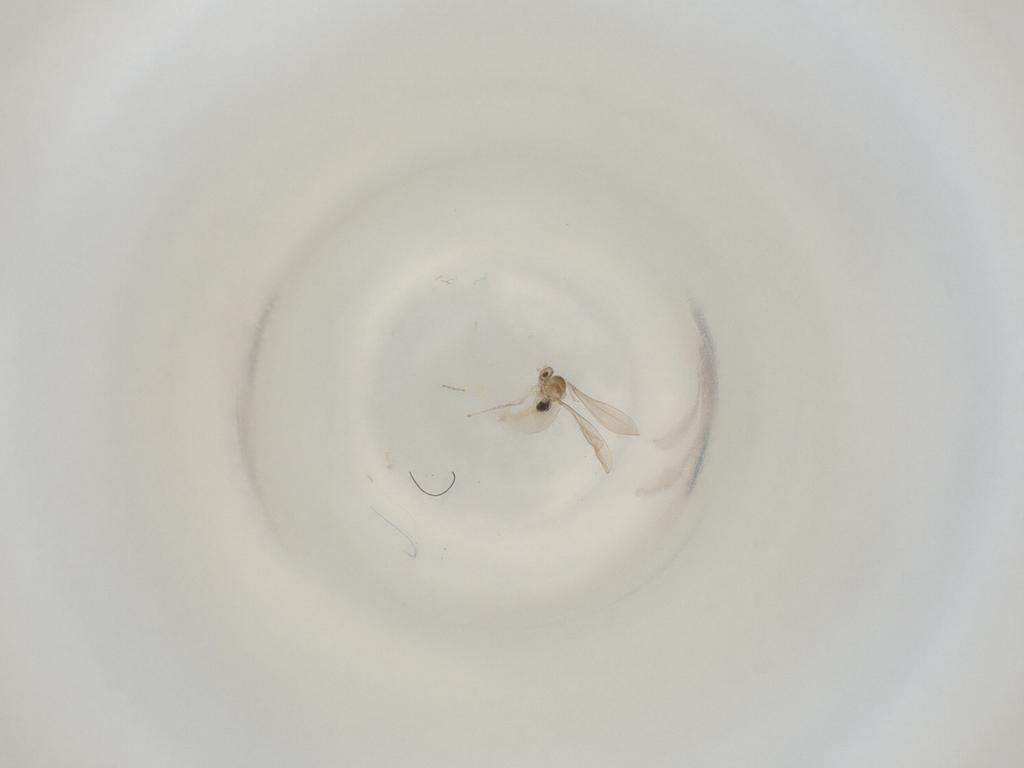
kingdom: Animalia
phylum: Arthropoda
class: Insecta
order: Diptera
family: Cecidomyiidae
